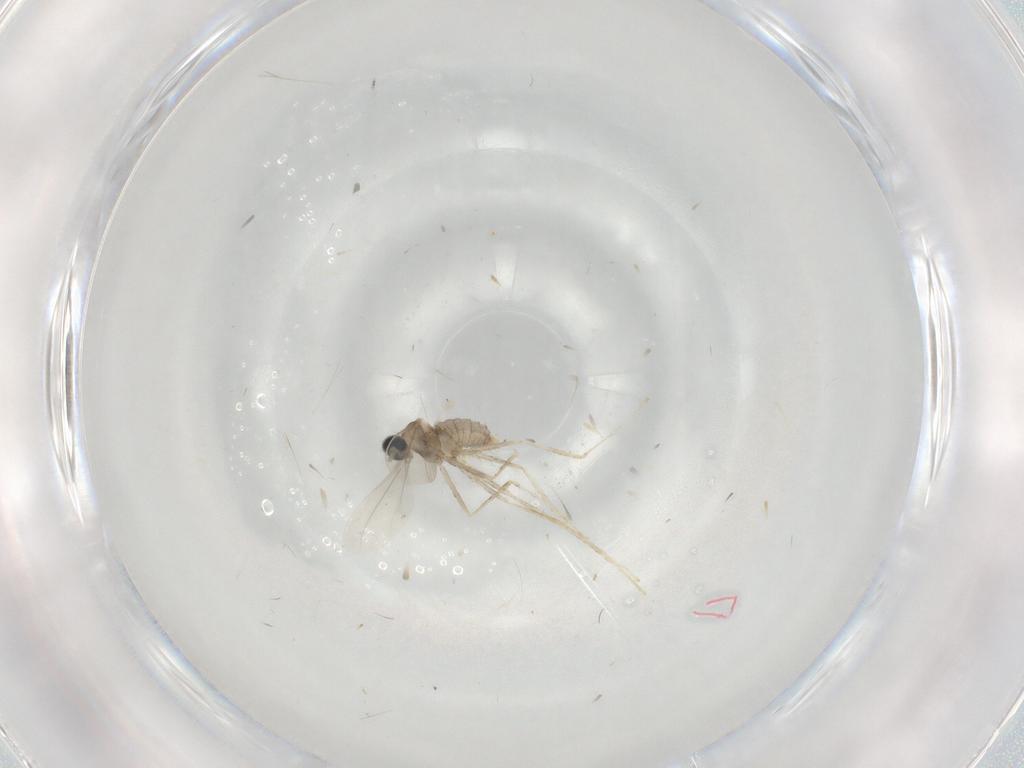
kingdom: Animalia
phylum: Arthropoda
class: Insecta
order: Diptera
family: Cecidomyiidae
